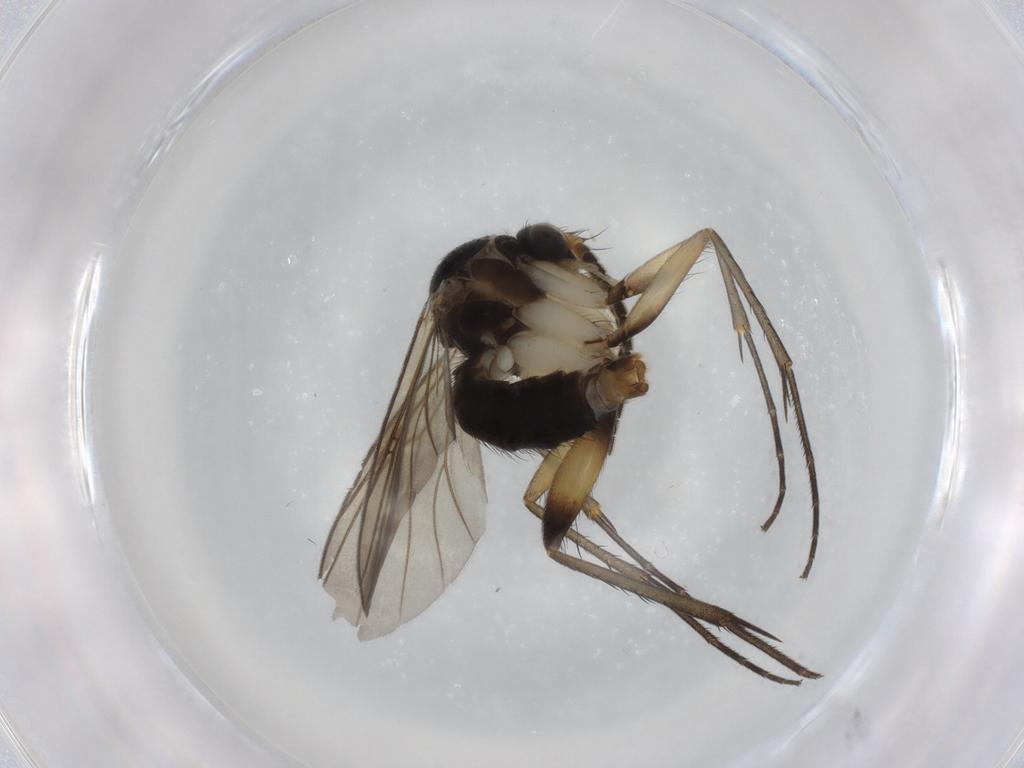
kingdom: Animalia
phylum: Arthropoda
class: Insecta
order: Diptera
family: Mycetophilidae
